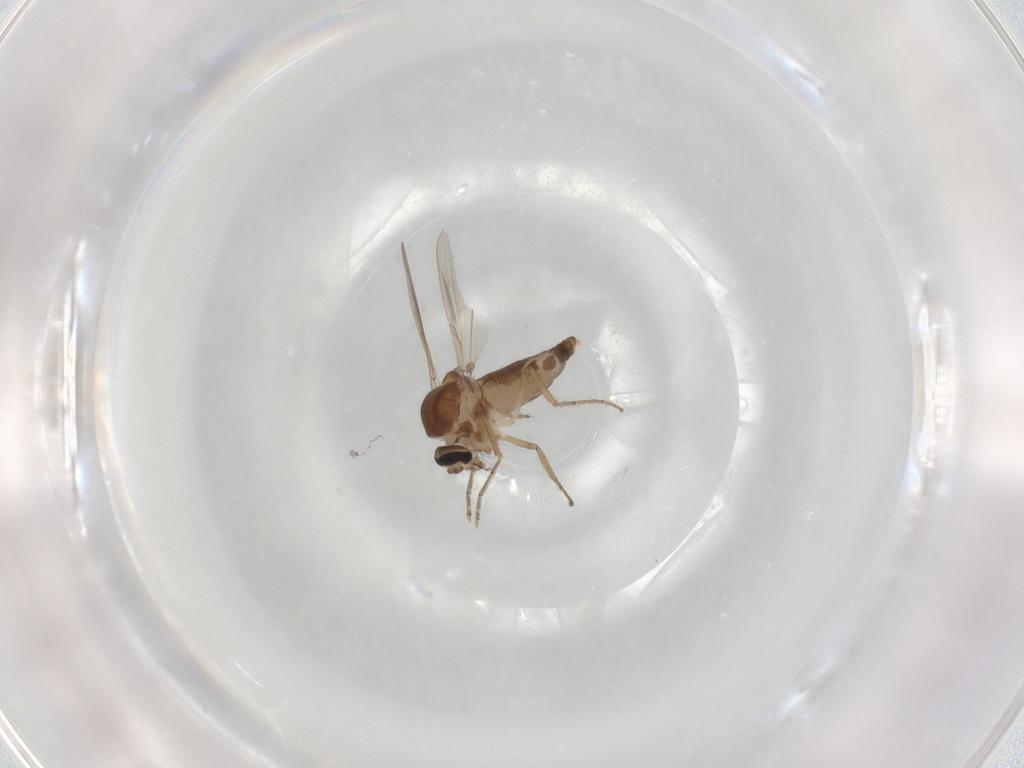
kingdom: Animalia
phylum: Arthropoda
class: Insecta
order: Diptera
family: Ceratopogonidae
